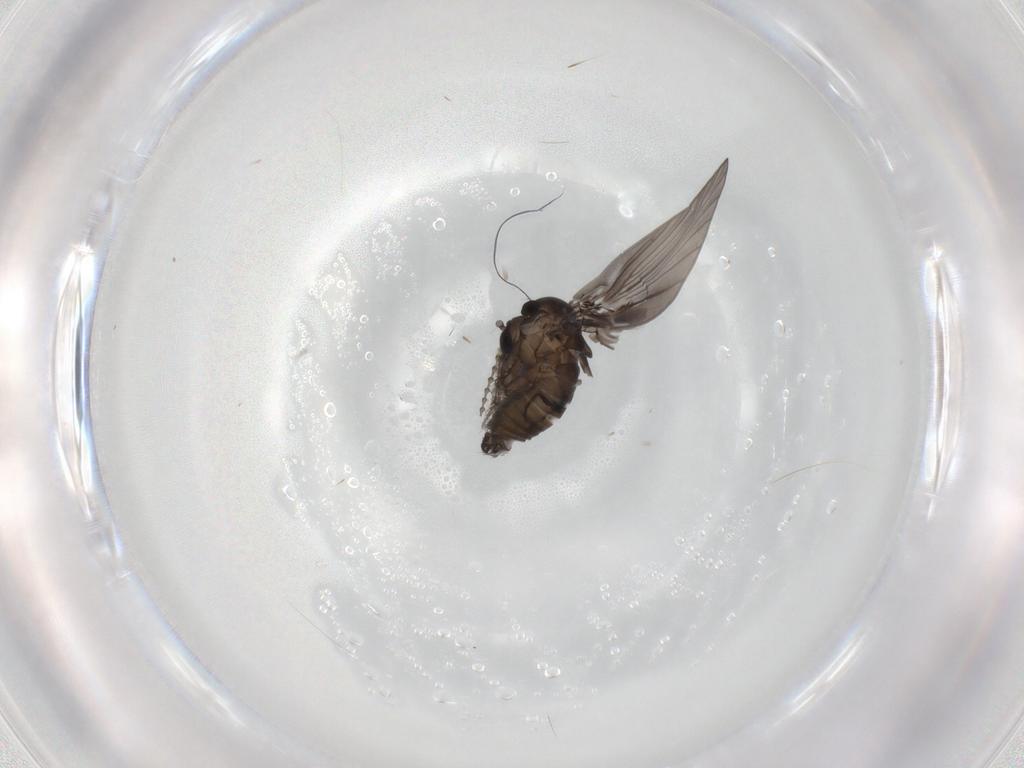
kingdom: Animalia
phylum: Arthropoda
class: Insecta
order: Diptera
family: Psychodidae
